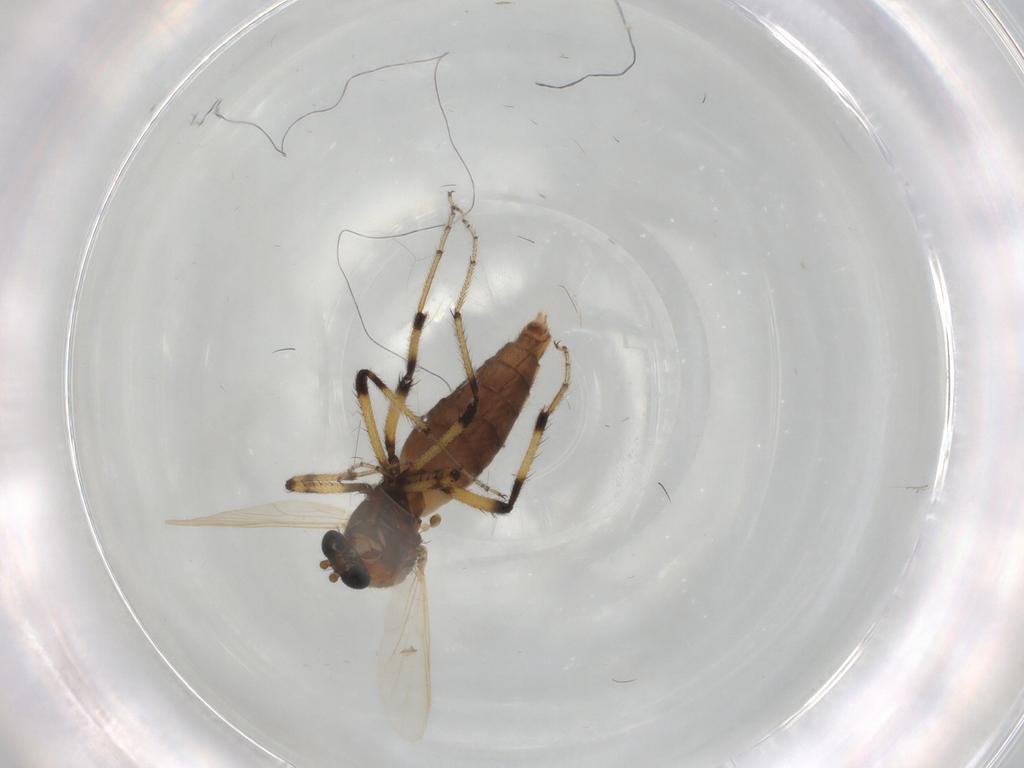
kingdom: Animalia
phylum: Arthropoda
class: Insecta
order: Diptera
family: Ceratopogonidae
